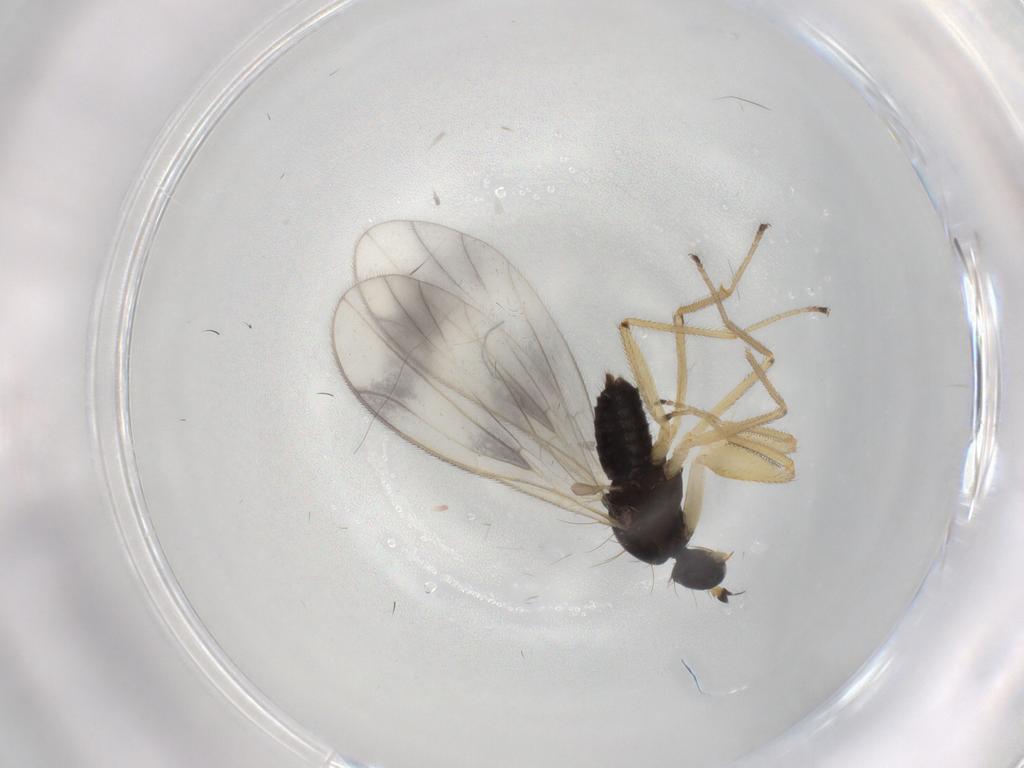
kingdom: Animalia
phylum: Arthropoda
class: Insecta
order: Diptera
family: Empididae
